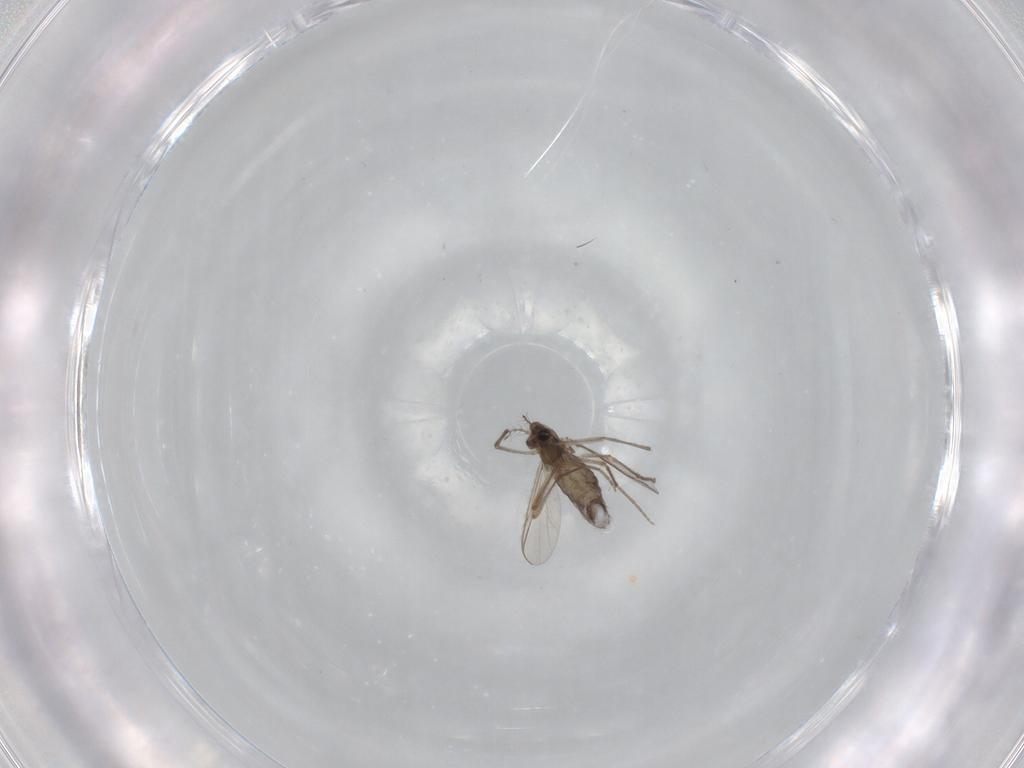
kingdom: Animalia
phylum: Arthropoda
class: Insecta
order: Diptera
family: Chironomidae
